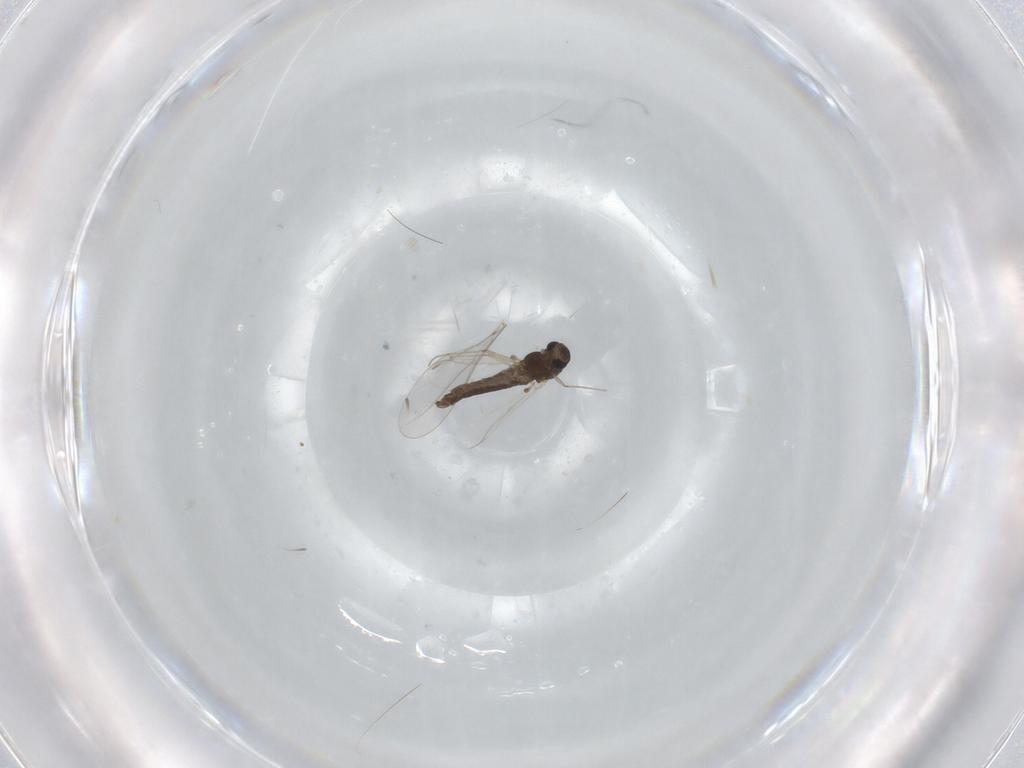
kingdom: Animalia
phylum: Arthropoda
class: Insecta
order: Diptera
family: Chironomidae
